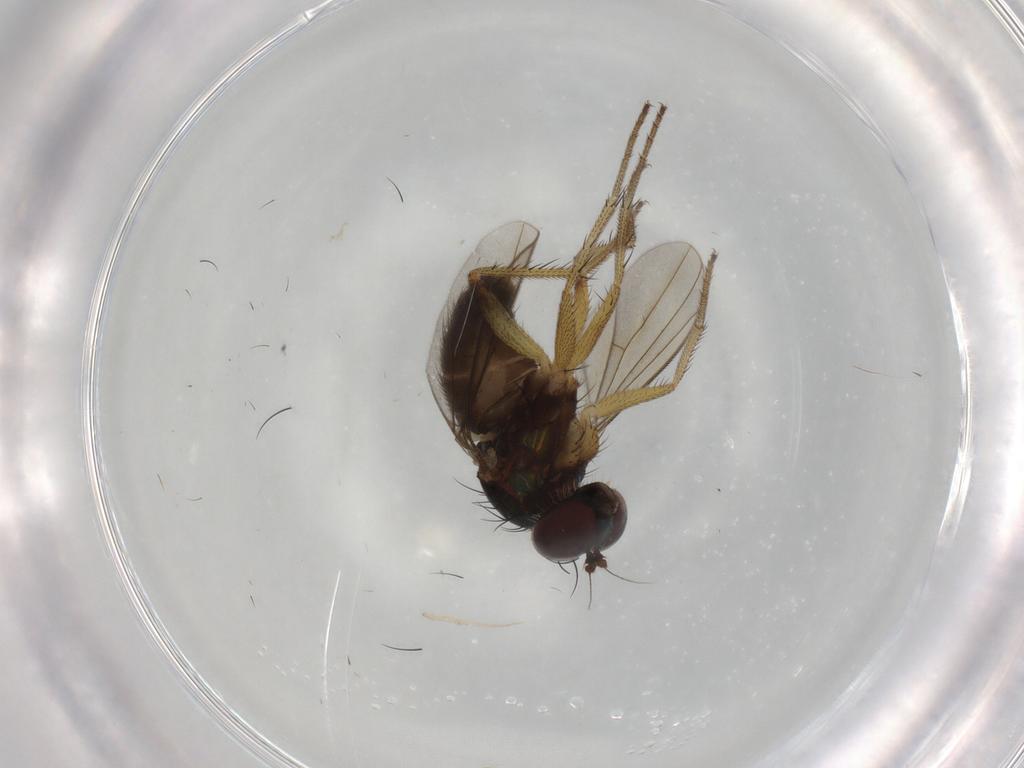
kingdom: Animalia
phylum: Arthropoda
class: Insecta
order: Diptera
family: Dolichopodidae
